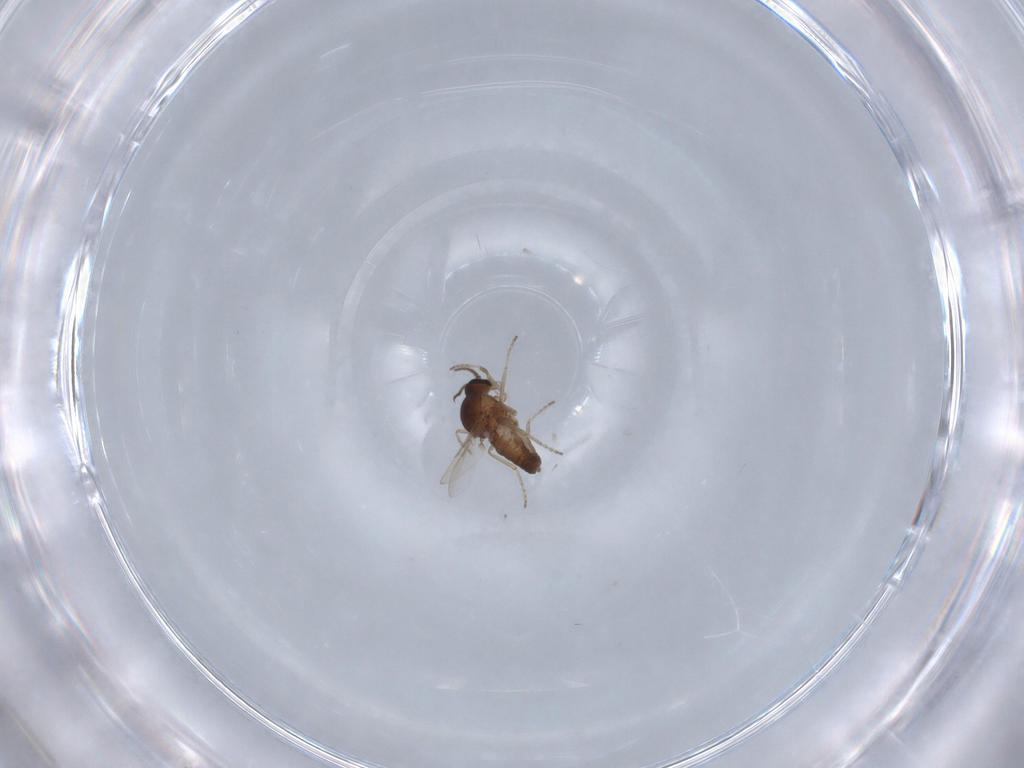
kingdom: Animalia
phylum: Arthropoda
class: Insecta
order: Diptera
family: Ceratopogonidae
